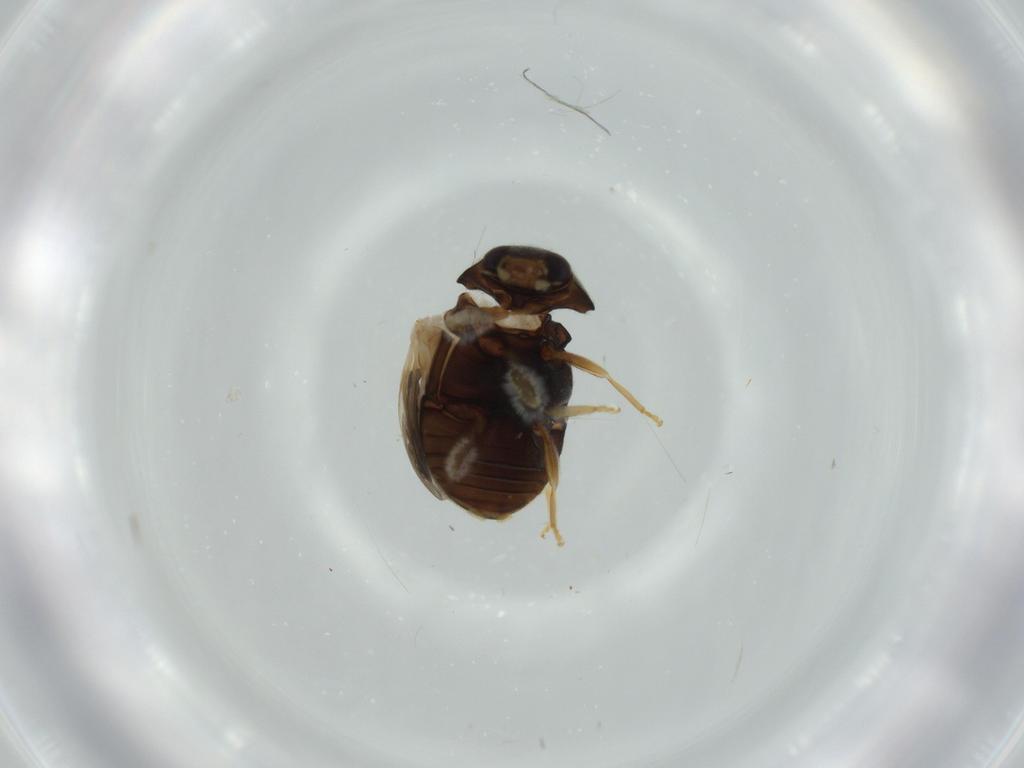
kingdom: Animalia
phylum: Arthropoda
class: Insecta
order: Coleoptera
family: Coccinellidae
